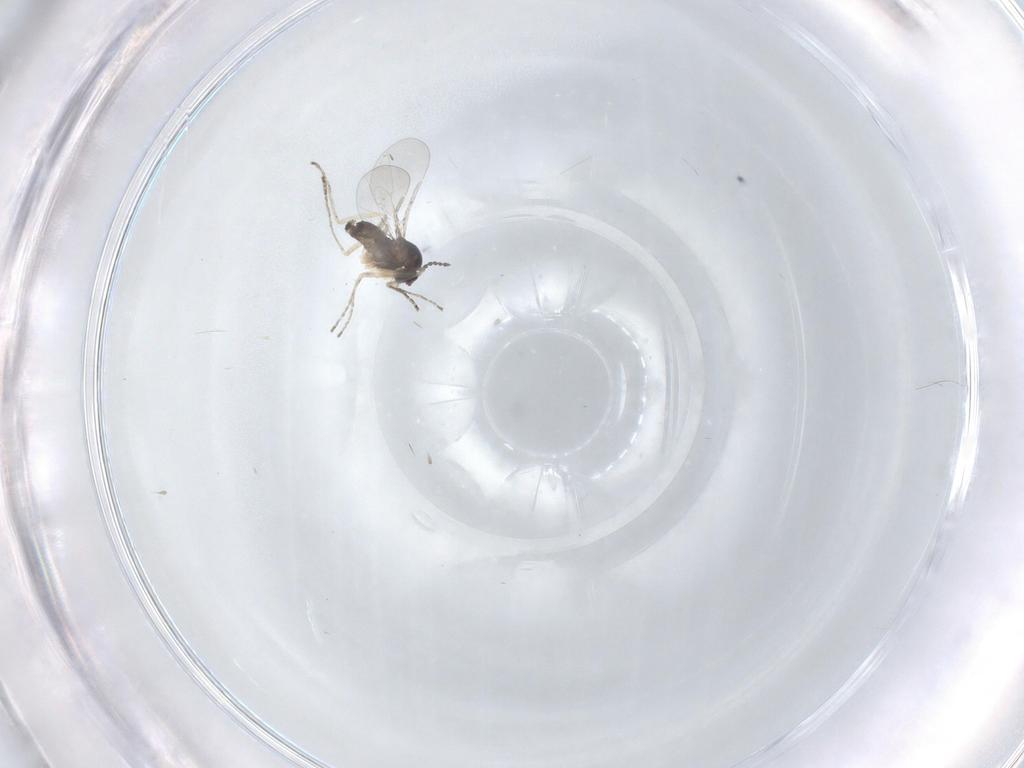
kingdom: Animalia
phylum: Arthropoda
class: Insecta
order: Diptera
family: Cecidomyiidae
